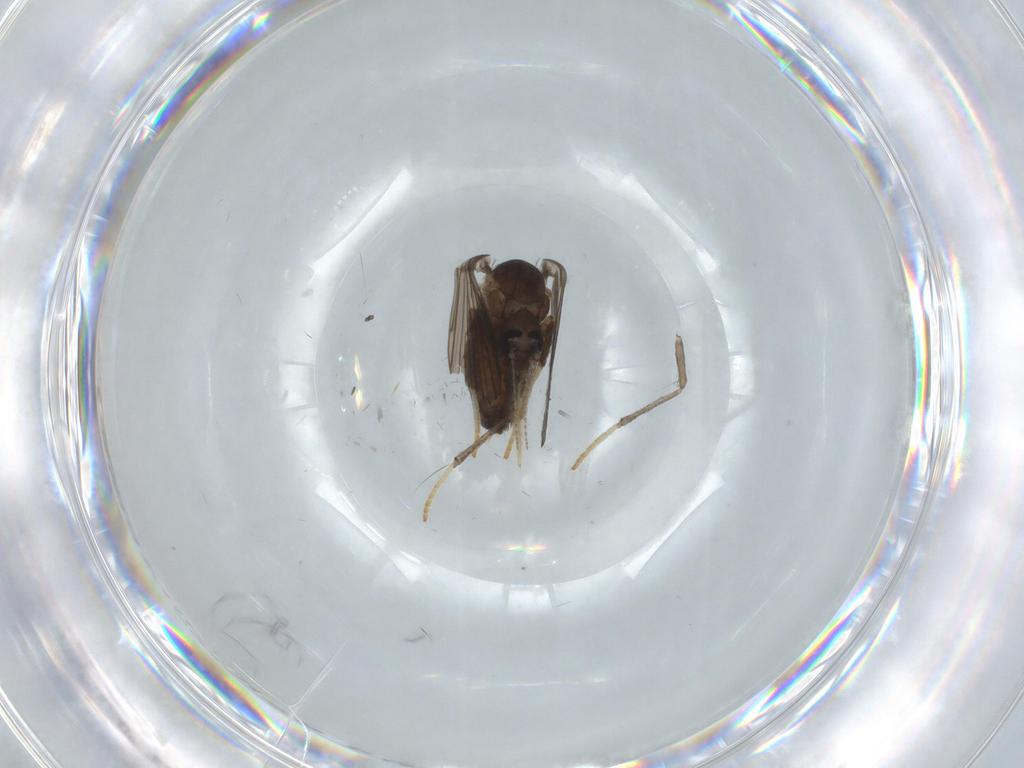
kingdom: Animalia
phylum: Arthropoda
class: Insecta
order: Diptera
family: Psychodidae
